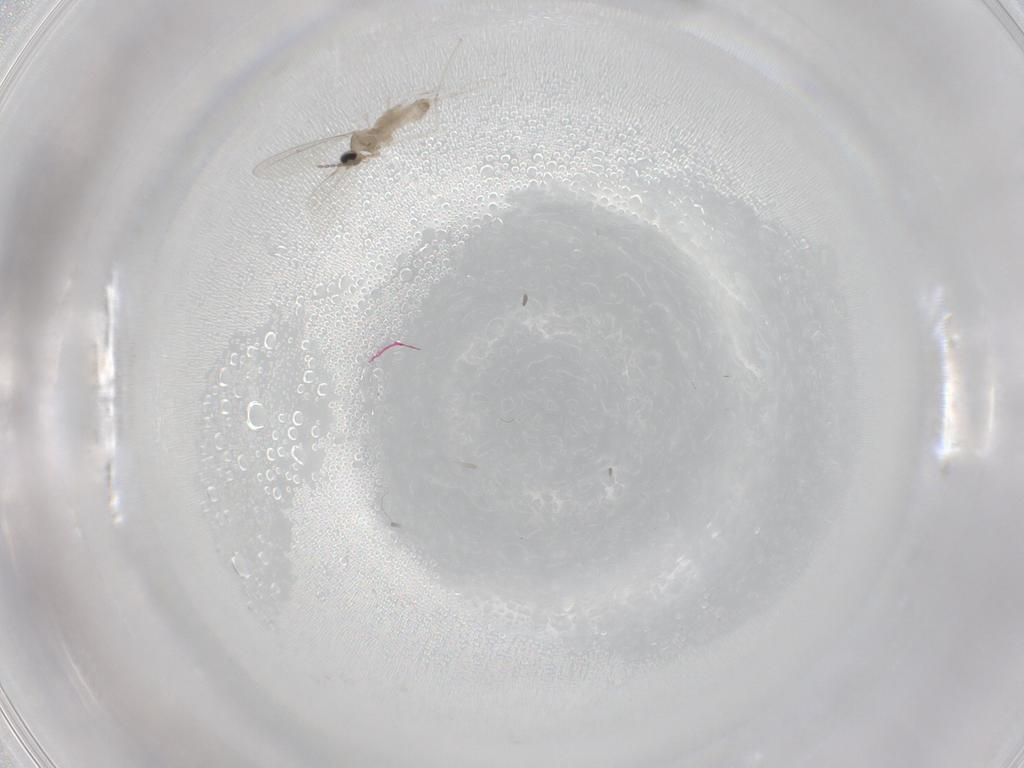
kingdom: Animalia
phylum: Arthropoda
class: Insecta
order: Diptera
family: Cecidomyiidae
